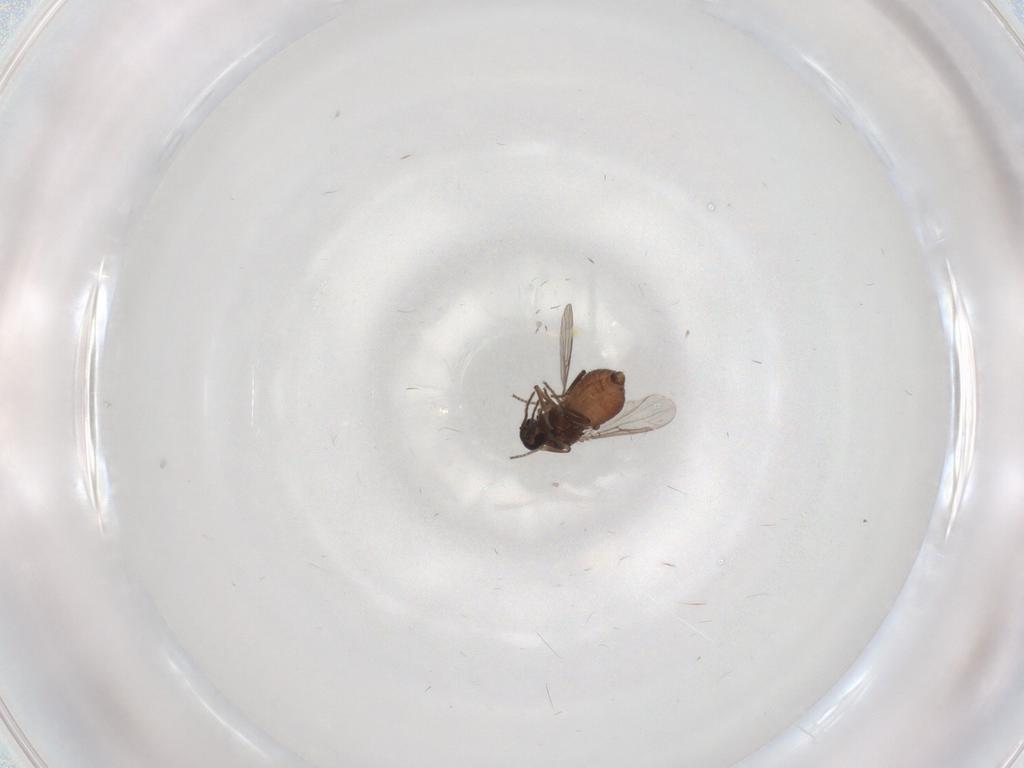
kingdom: Animalia
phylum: Arthropoda
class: Insecta
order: Diptera
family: Ceratopogonidae
